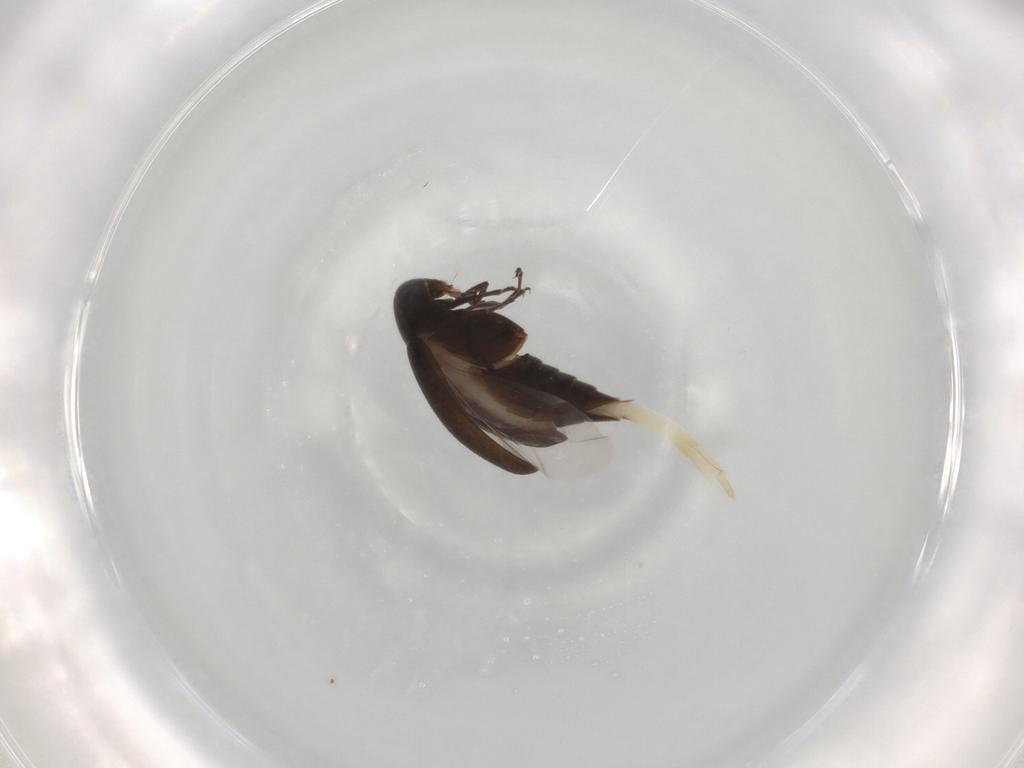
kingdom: Animalia
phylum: Arthropoda
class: Insecta
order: Coleoptera
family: Scraptiidae
